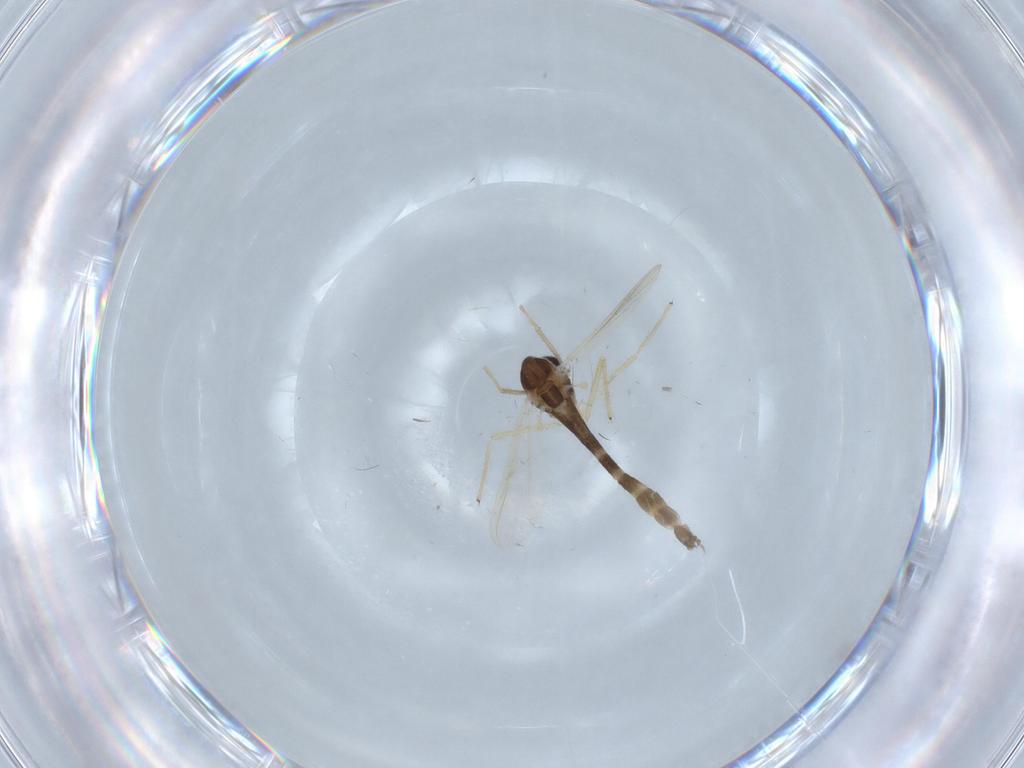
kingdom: Animalia
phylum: Arthropoda
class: Insecta
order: Diptera
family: Chironomidae
